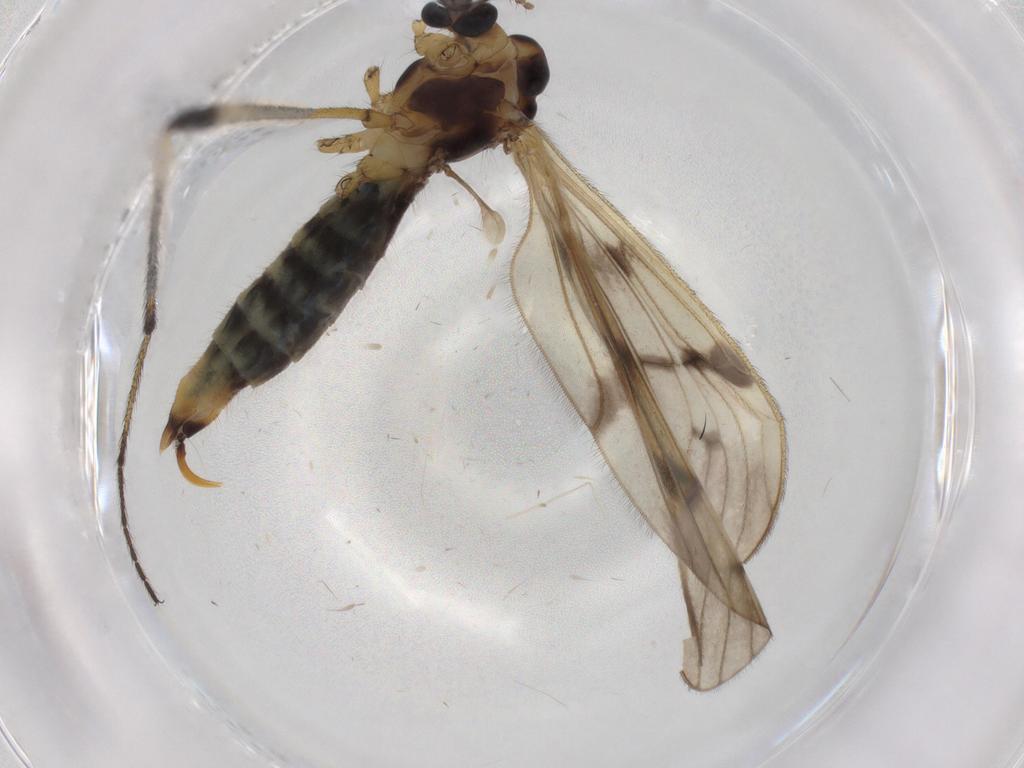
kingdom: Animalia
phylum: Arthropoda
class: Insecta
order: Diptera
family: Limoniidae
